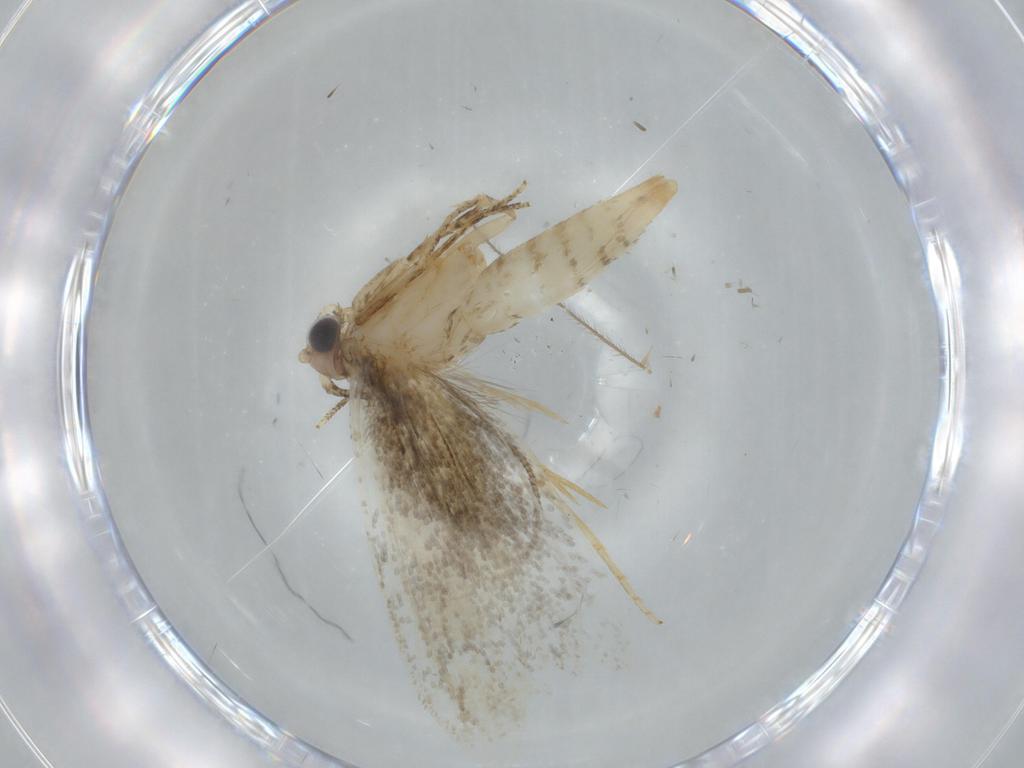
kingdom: Animalia
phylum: Arthropoda
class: Insecta
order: Lepidoptera
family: Tineidae
